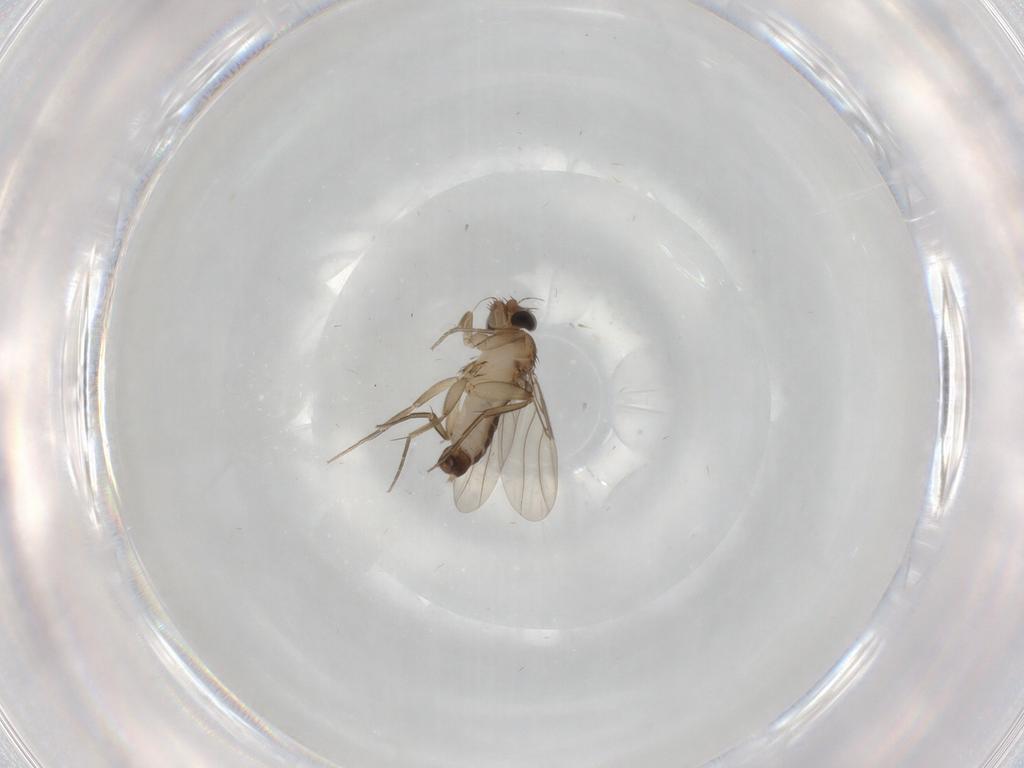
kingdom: Animalia
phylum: Arthropoda
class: Insecta
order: Diptera
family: Phoridae
